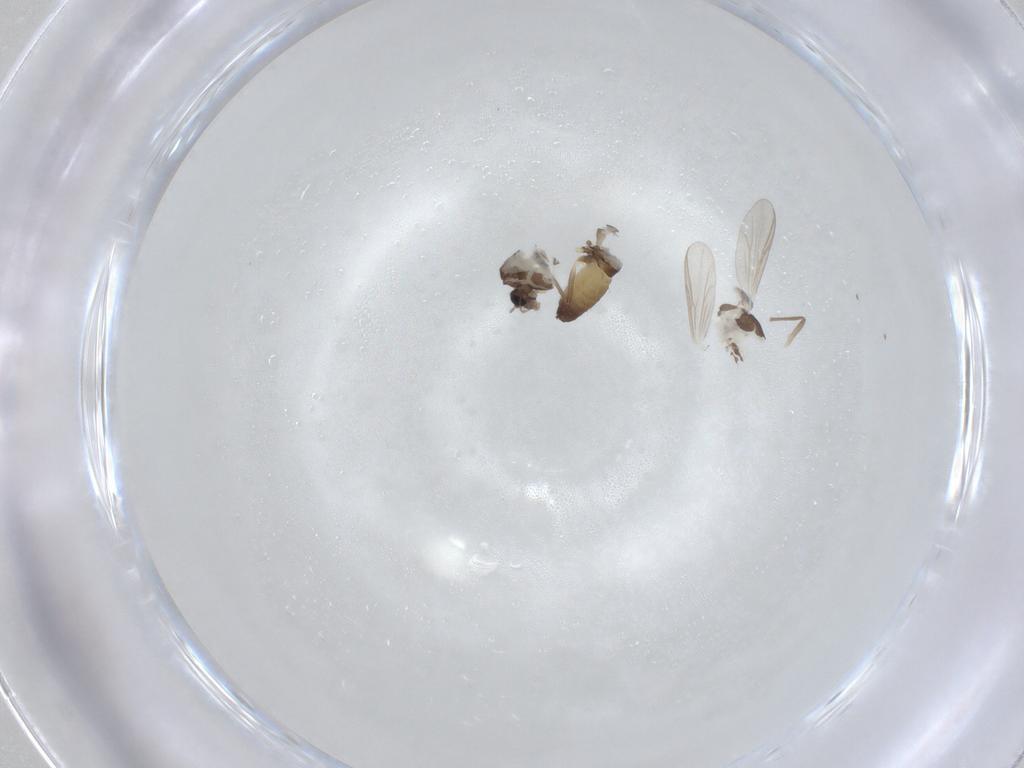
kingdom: Animalia
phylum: Arthropoda
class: Insecta
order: Diptera
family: Chironomidae
